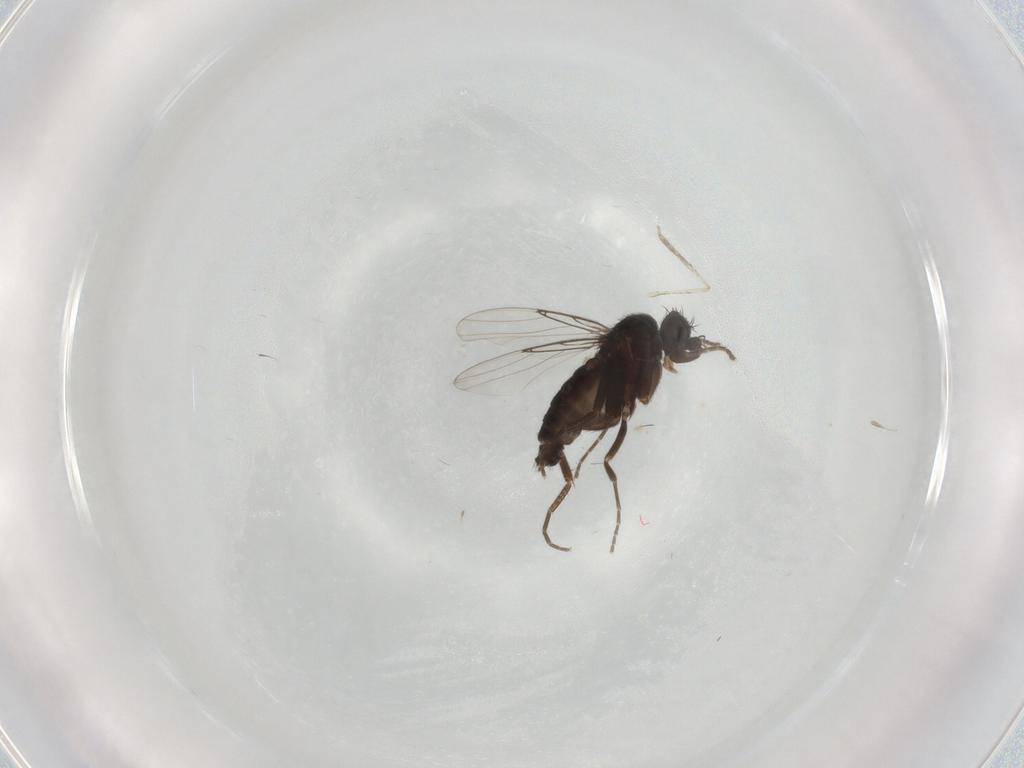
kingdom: Animalia
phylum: Arthropoda
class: Insecta
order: Diptera
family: Phoridae
